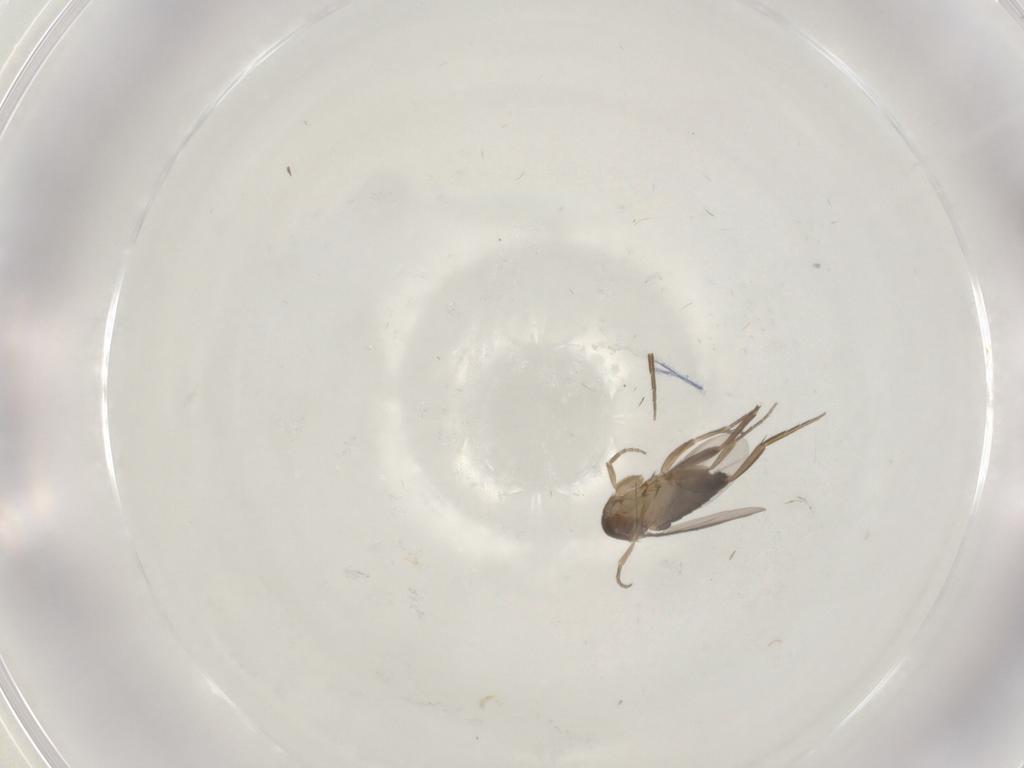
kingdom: Animalia
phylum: Arthropoda
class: Insecta
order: Diptera
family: Phoridae
